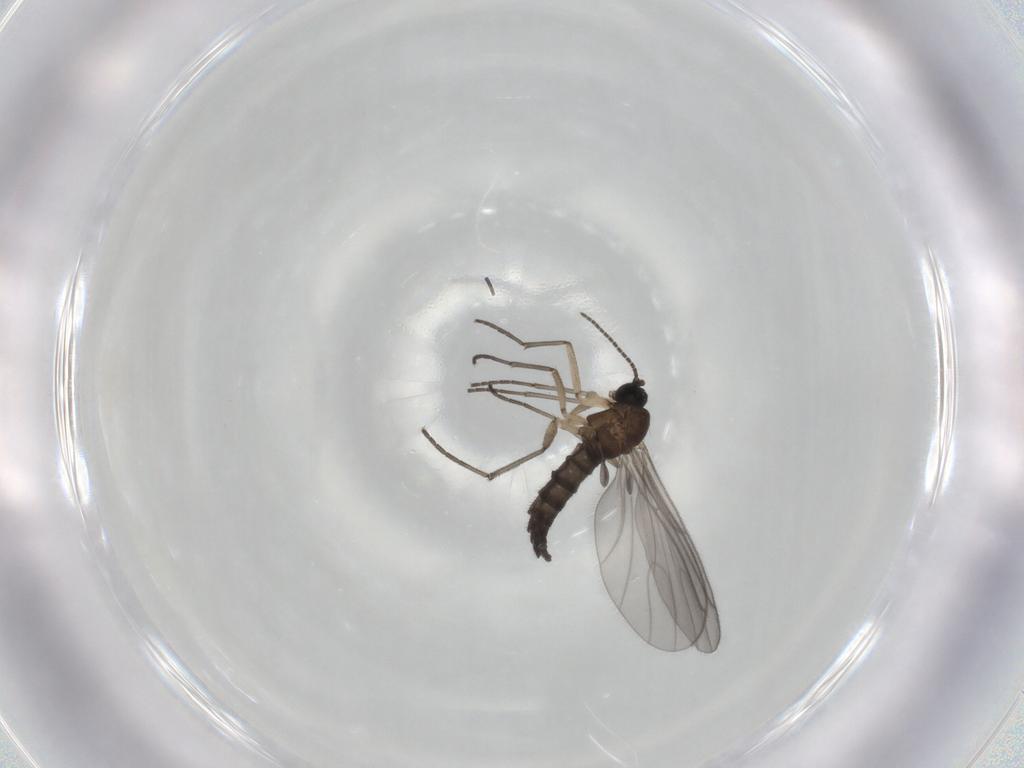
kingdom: Animalia
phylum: Arthropoda
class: Insecta
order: Diptera
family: Sciaridae
